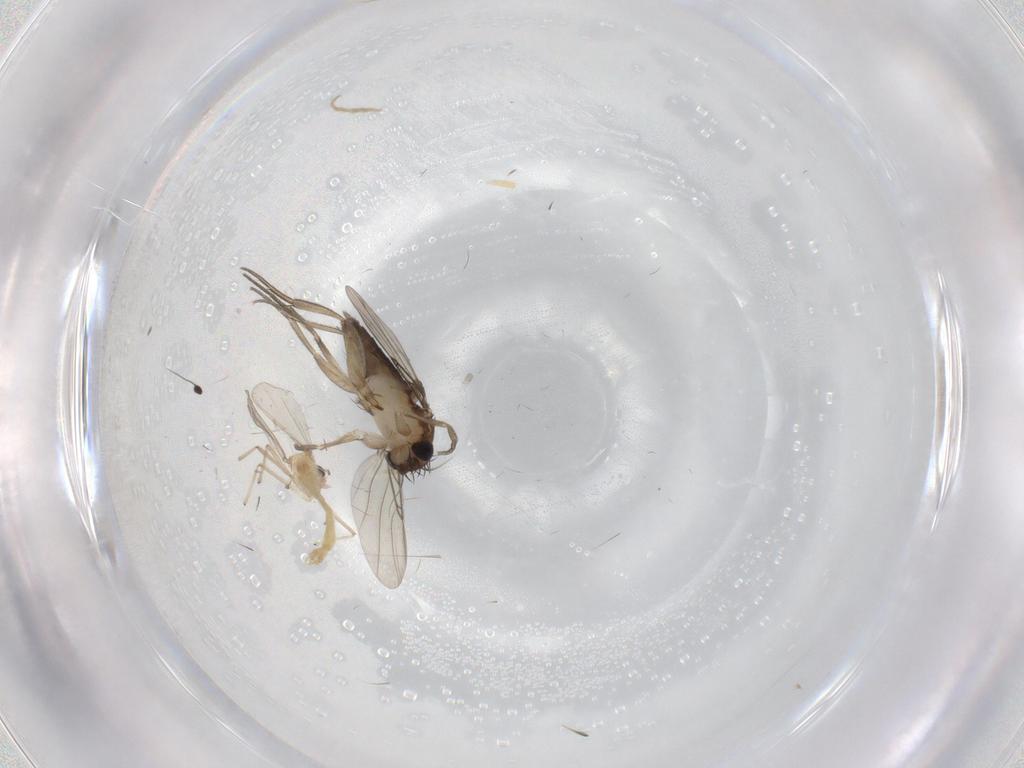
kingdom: Animalia
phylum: Arthropoda
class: Insecta
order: Diptera
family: Phoridae
